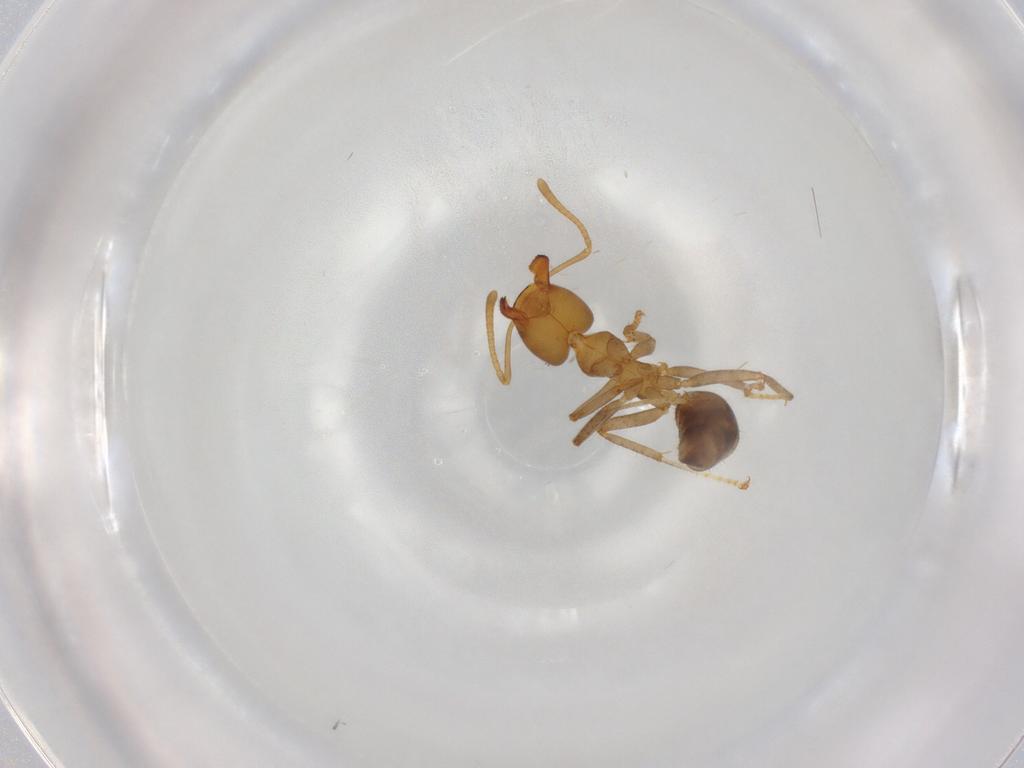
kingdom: Animalia
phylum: Arthropoda
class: Insecta
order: Hymenoptera
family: Formicidae
